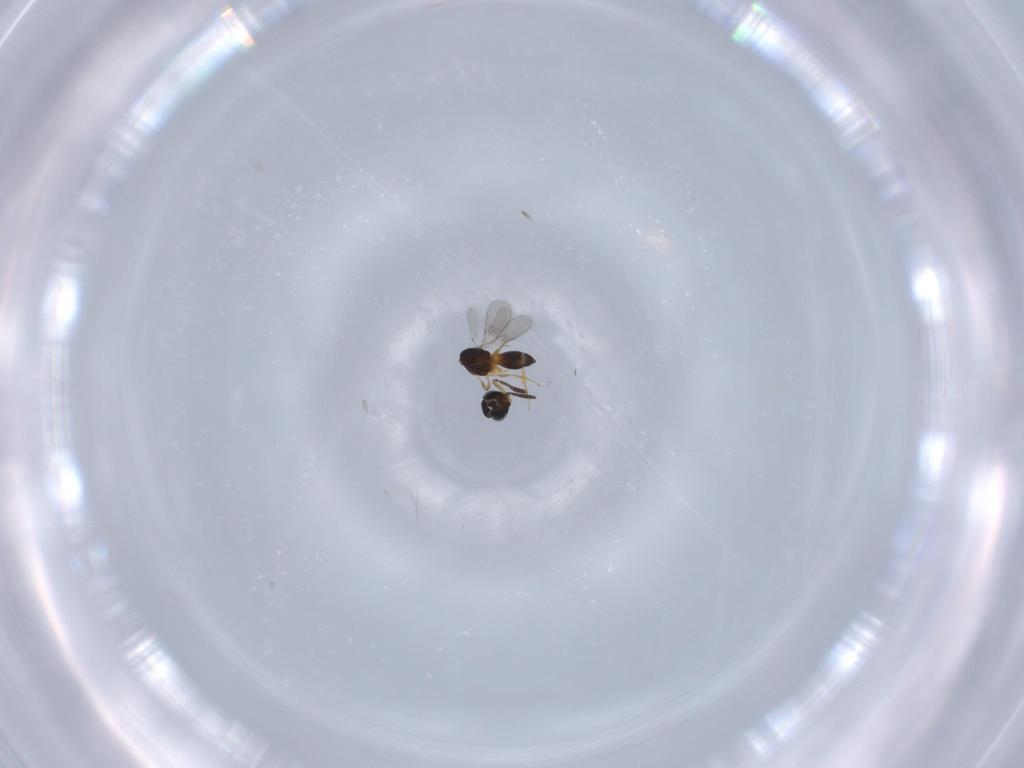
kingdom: Animalia
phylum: Arthropoda
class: Insecta
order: Hymenoptera
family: Scelionidae
